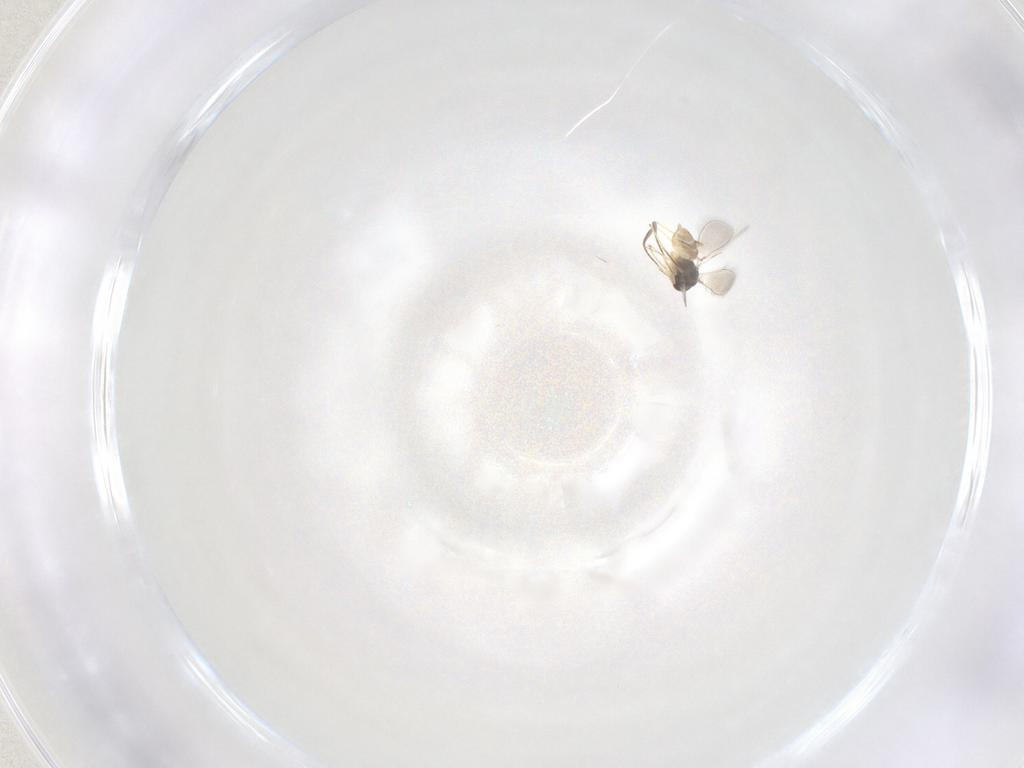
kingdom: Animalia
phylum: Arthropoda
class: Insecta
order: Hymenoptera
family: Mymaridae
